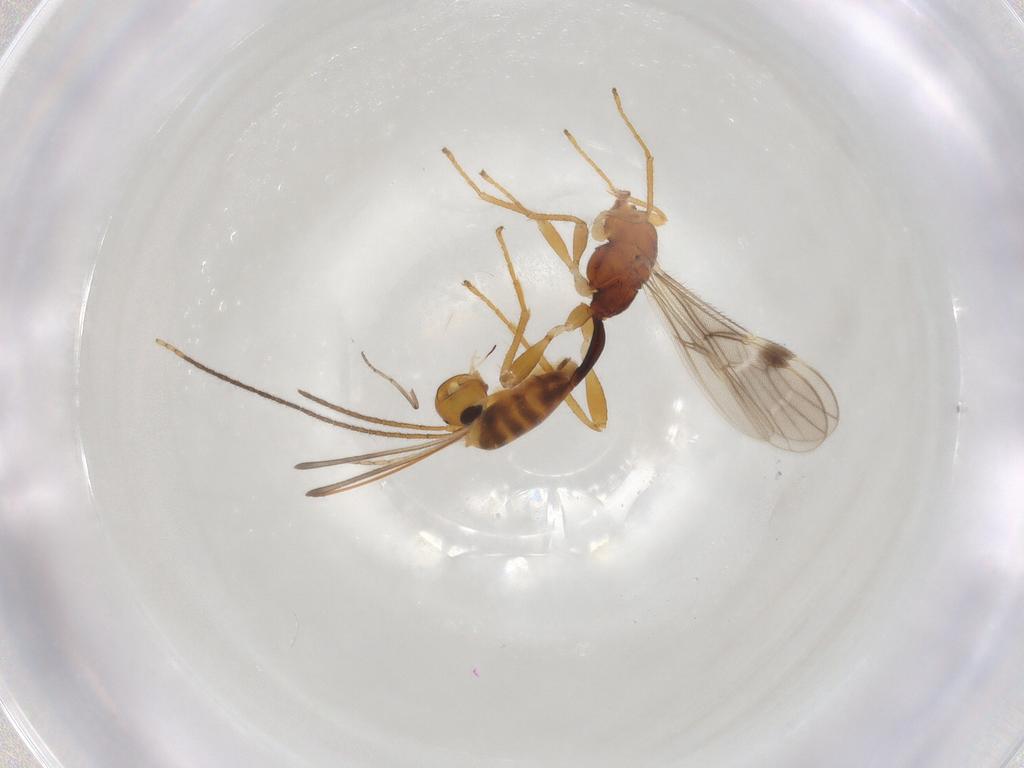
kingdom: Animalia
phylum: Arthropoda
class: Insecta
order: Hymenoptera
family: Braconidae
